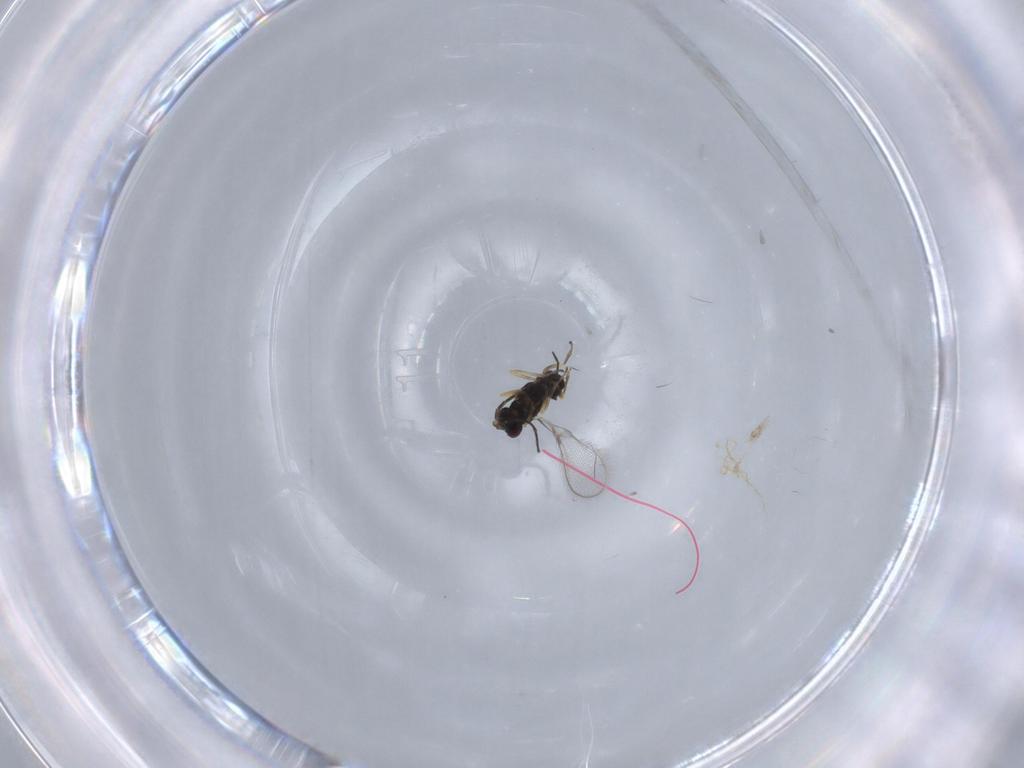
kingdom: Animalia
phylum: Arthropoda
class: Insecta
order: Hymenoptera
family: Mymaridae
